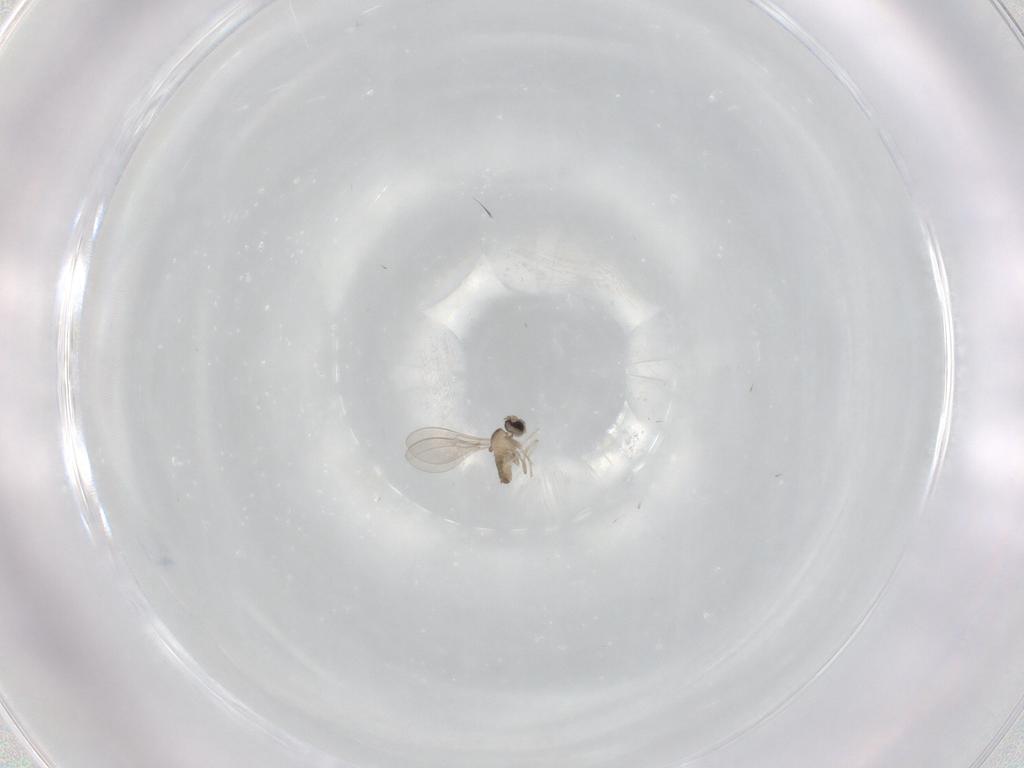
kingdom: Animalia
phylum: Arthropoda
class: Insecta
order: Diptera
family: Cecidomyiidae
